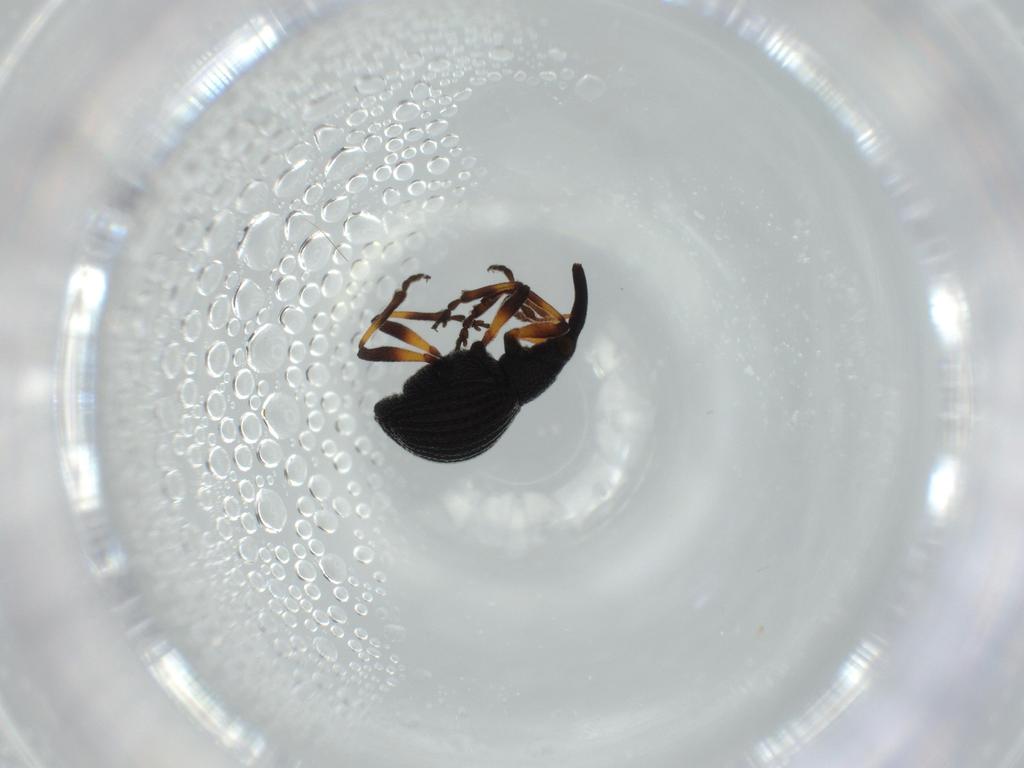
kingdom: Animalia
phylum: Arthropoda
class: Insecta
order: Coleoptera
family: Brentidae
